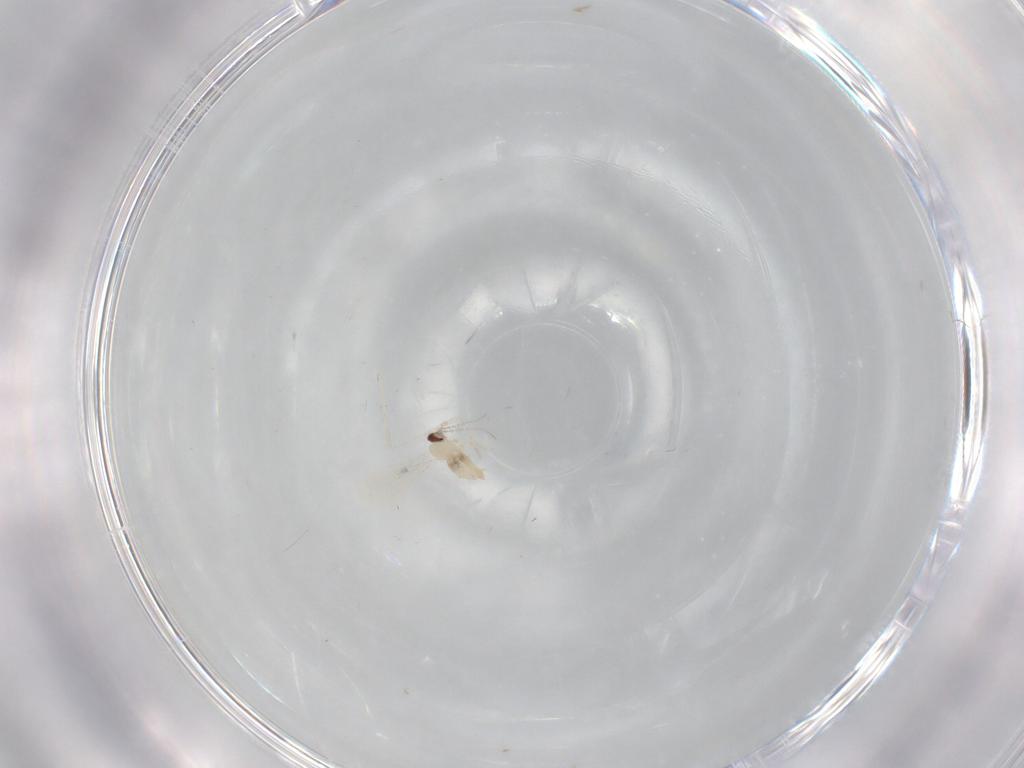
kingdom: Animalia
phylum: Arthropoda
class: Insecta
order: Diptera
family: Cecidomyiidae
